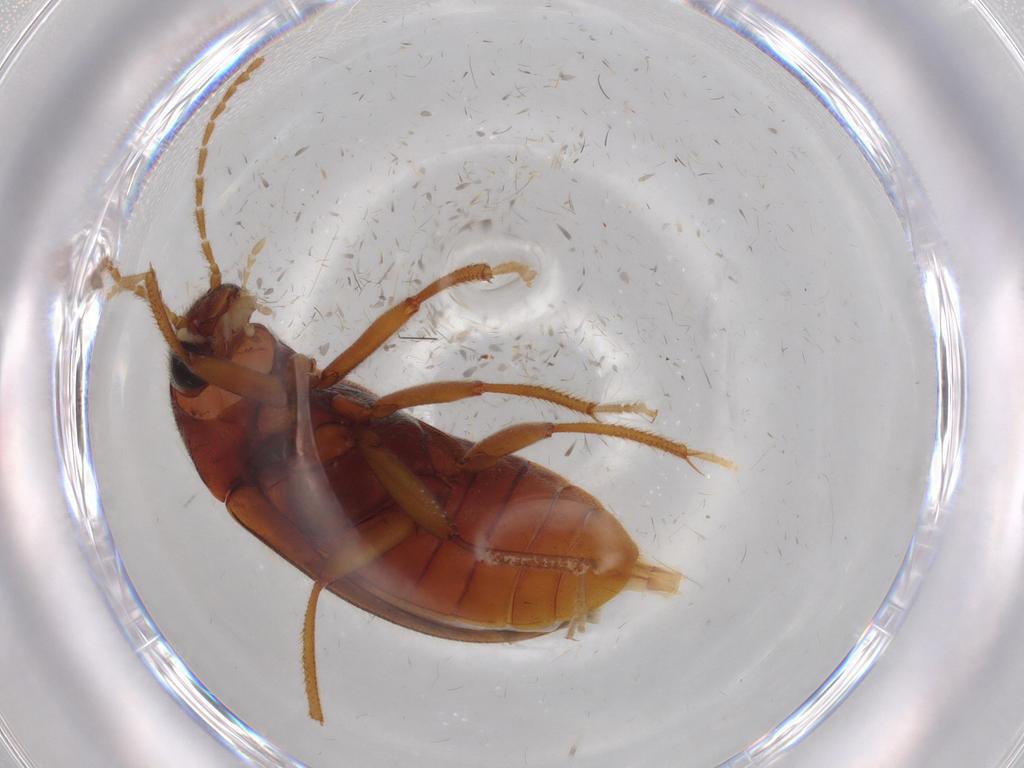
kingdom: Animalia
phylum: Arthropoda
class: Insecta
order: Coleoptera
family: Ptilodactylidae
